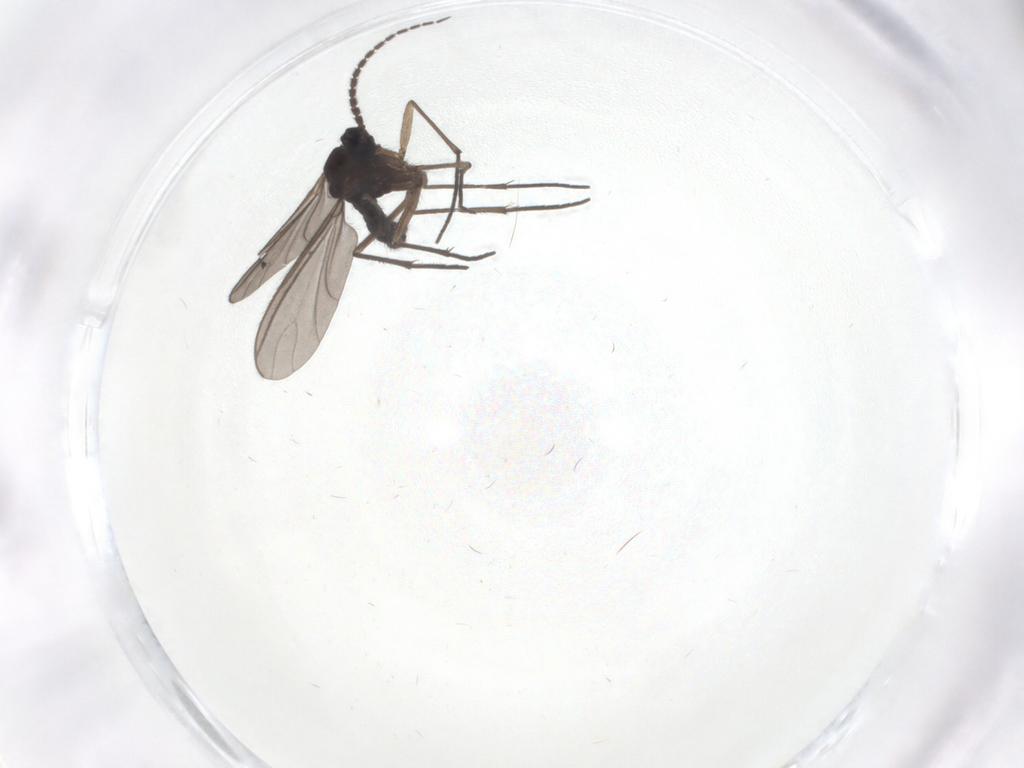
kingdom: Animalia
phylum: Arthropoda
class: Insecta
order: Diptera
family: Sciaridae
